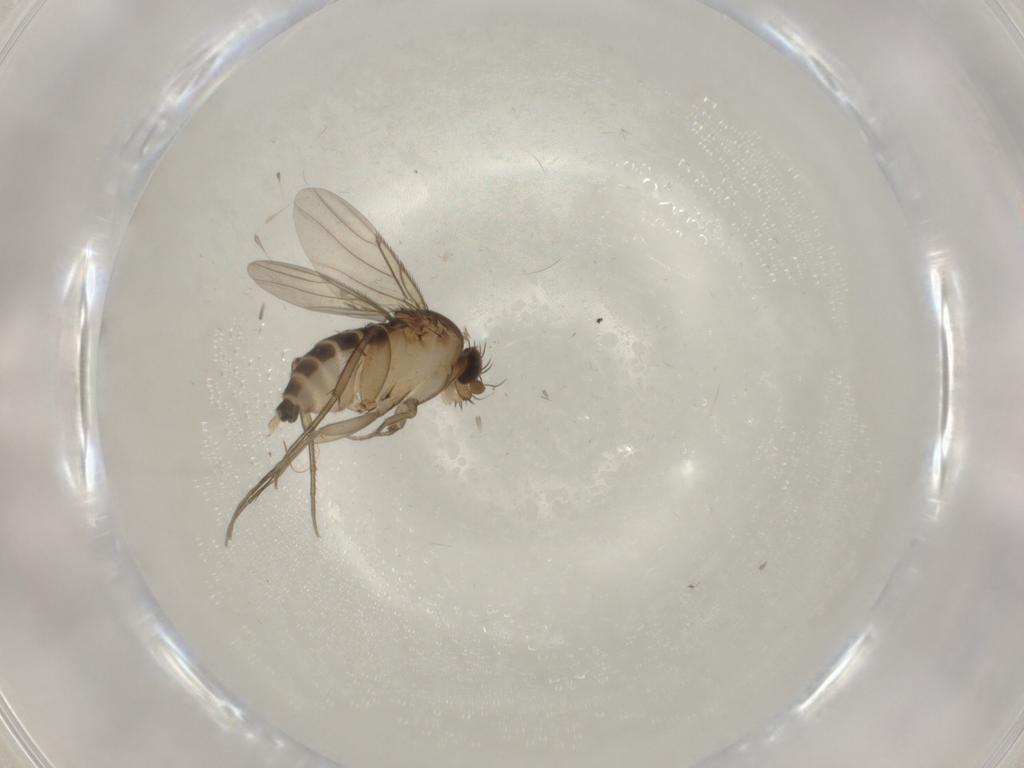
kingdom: Animalia
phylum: Arthropoda
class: Insecta
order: Diptera
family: Phoridae
